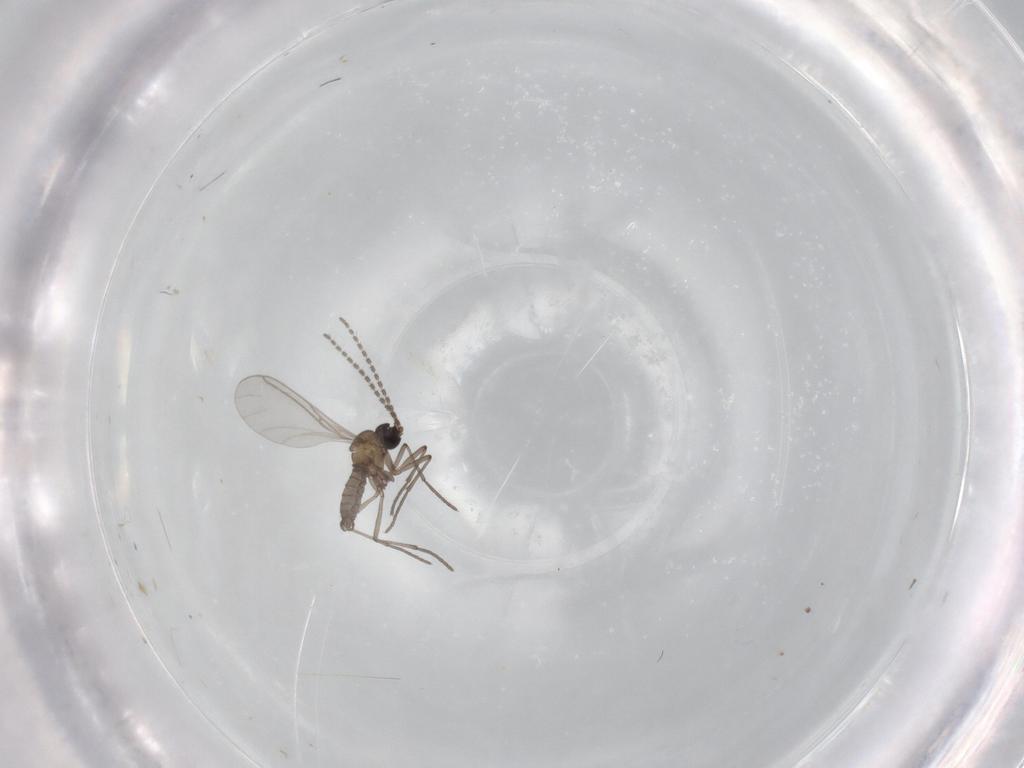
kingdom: Animalia
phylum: Arthropoda
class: Insecta
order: Diptera
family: Sciaridae
